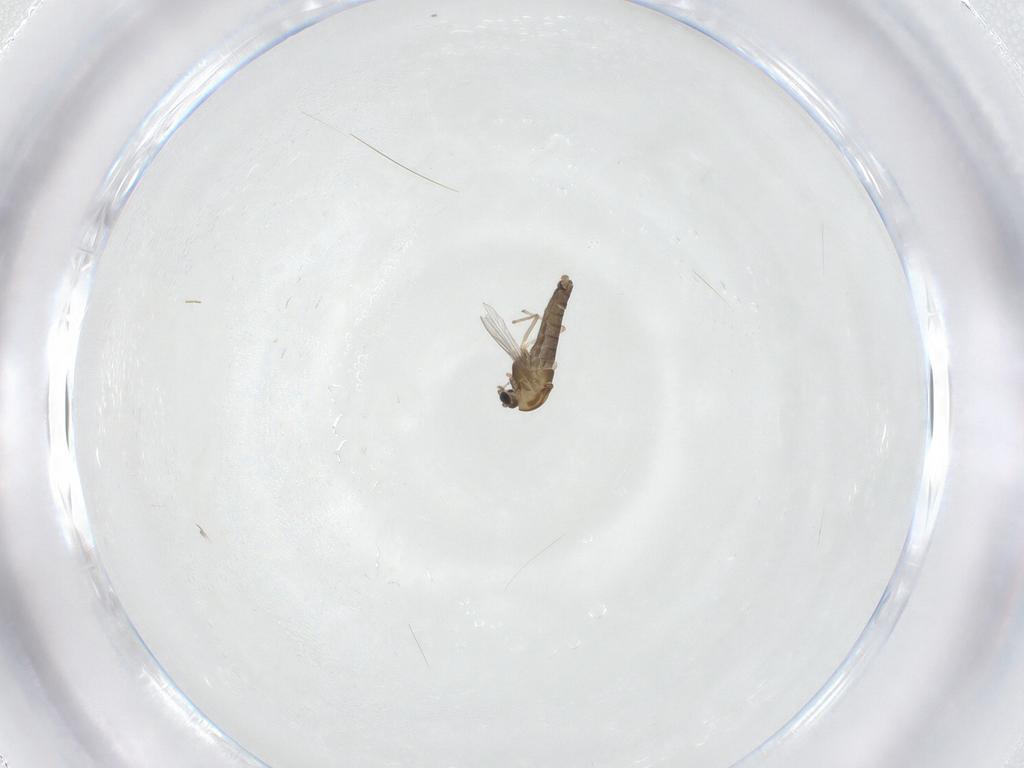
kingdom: Animalia
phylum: Arthropoda
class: Insecta
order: Diptera
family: Chironomidae
